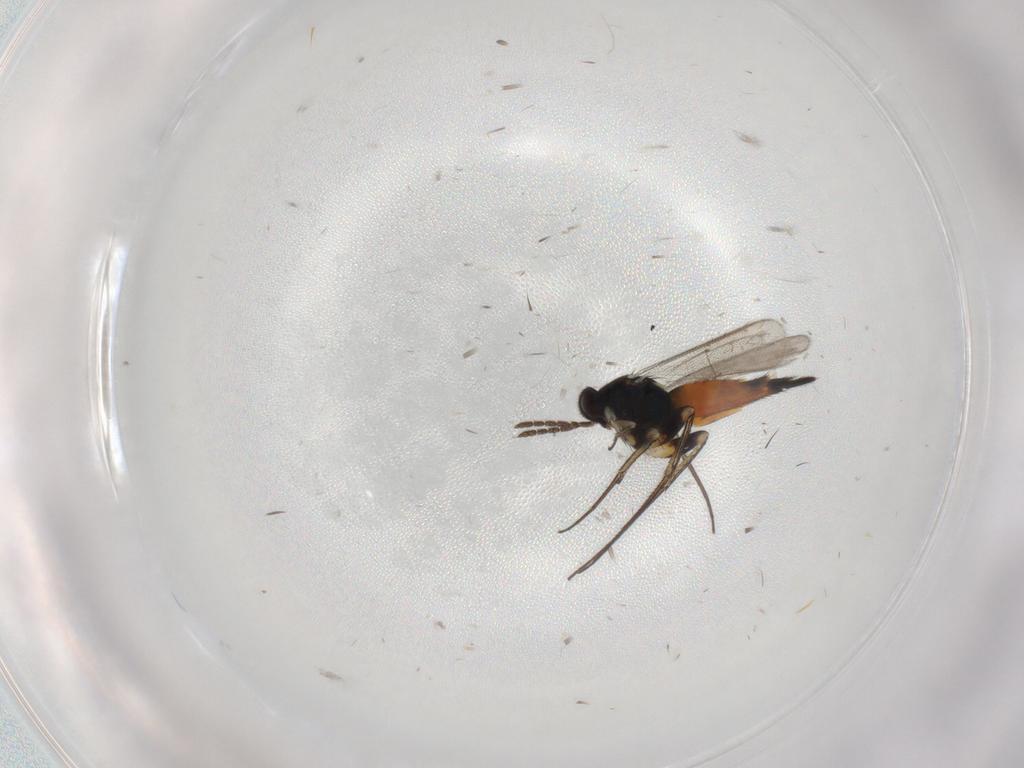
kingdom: Animalia
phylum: Arthropoda
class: Insecta
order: Hymenoptera
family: Eulophidae
